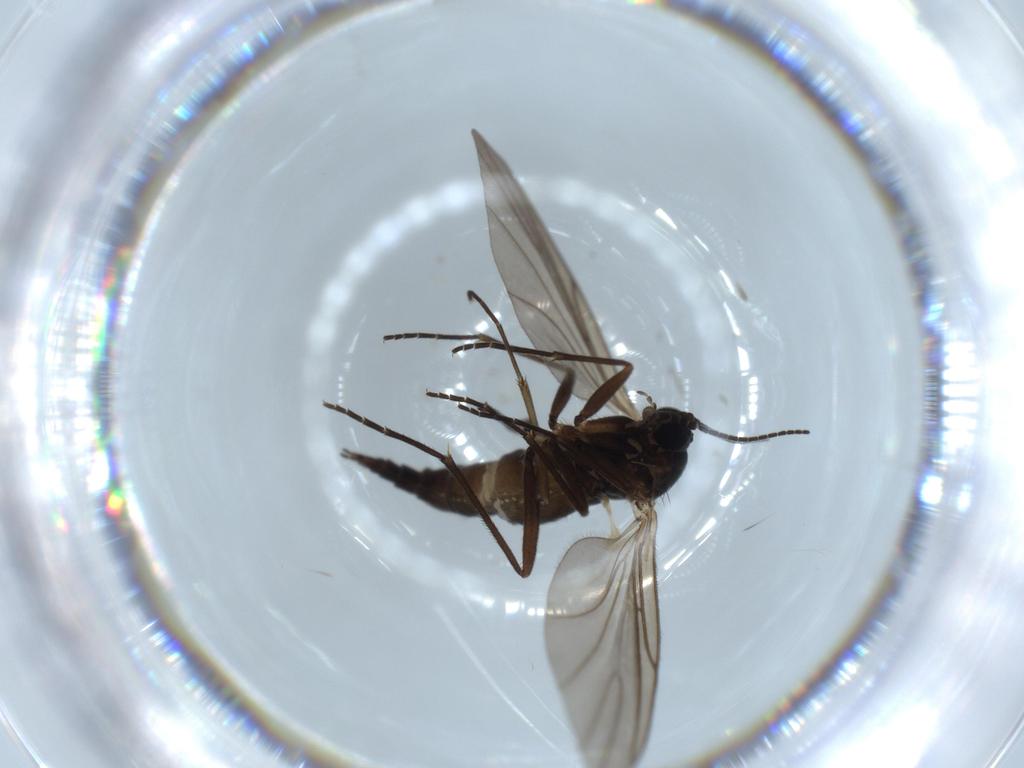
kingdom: Animalia
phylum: Arthropoda
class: Insecta
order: Diptera
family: Sciaridae
